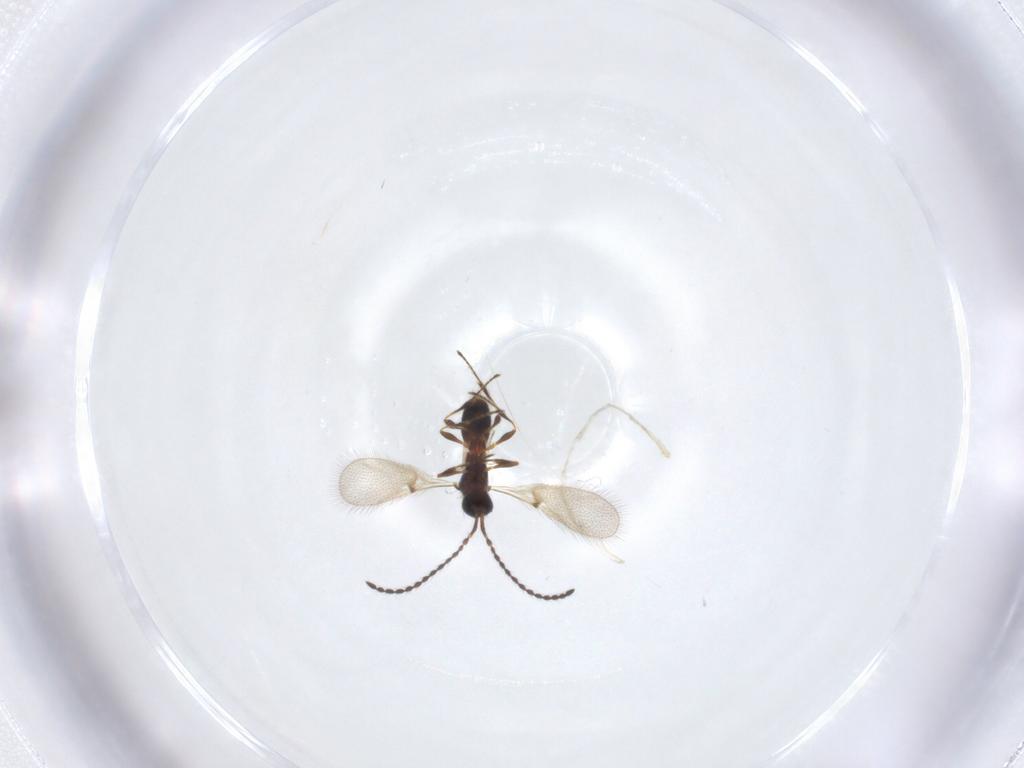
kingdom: Animalia
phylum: Arthropoda
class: Insecta
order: Hymenoptera
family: Diapriidae
